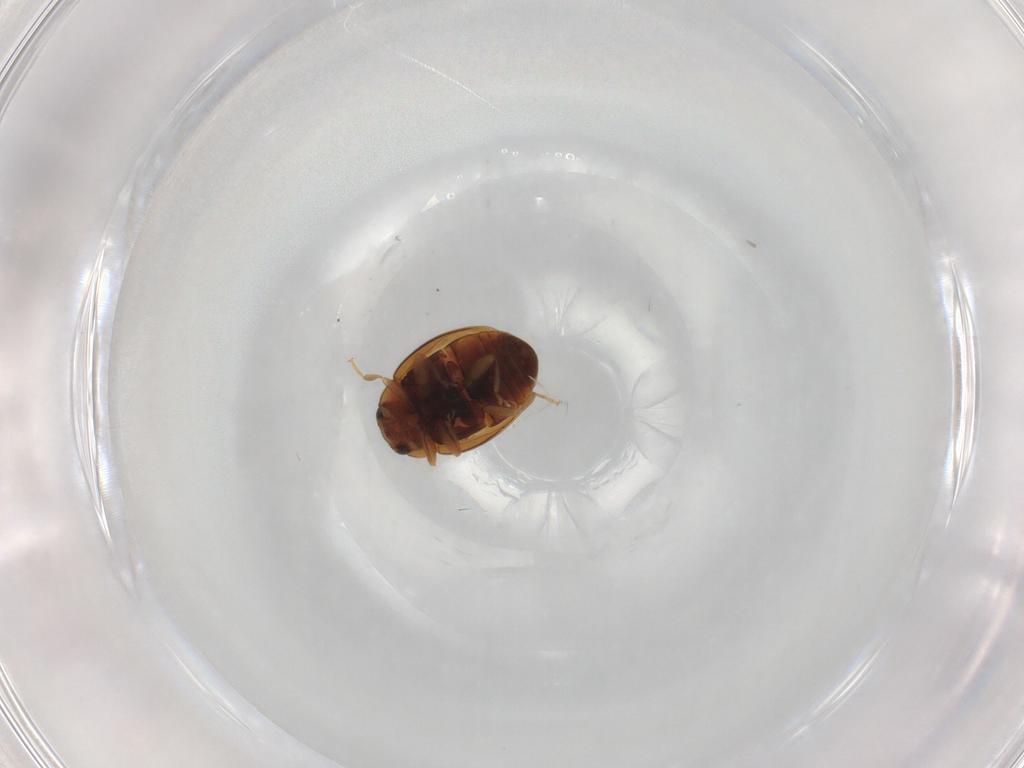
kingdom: Animalia
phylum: Arthropoda
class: Insecta
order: Coleoptera
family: Coccinellidae
